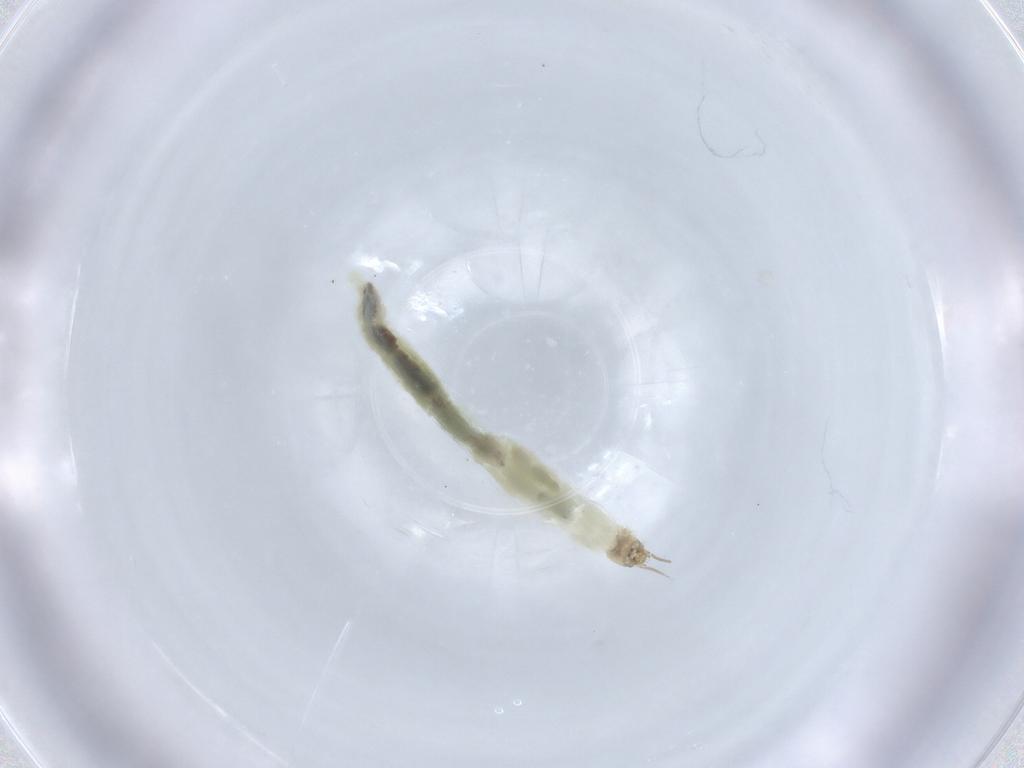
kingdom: Animalia
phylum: Arthropoda
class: Insecta
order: Diptera
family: Chironomidae
